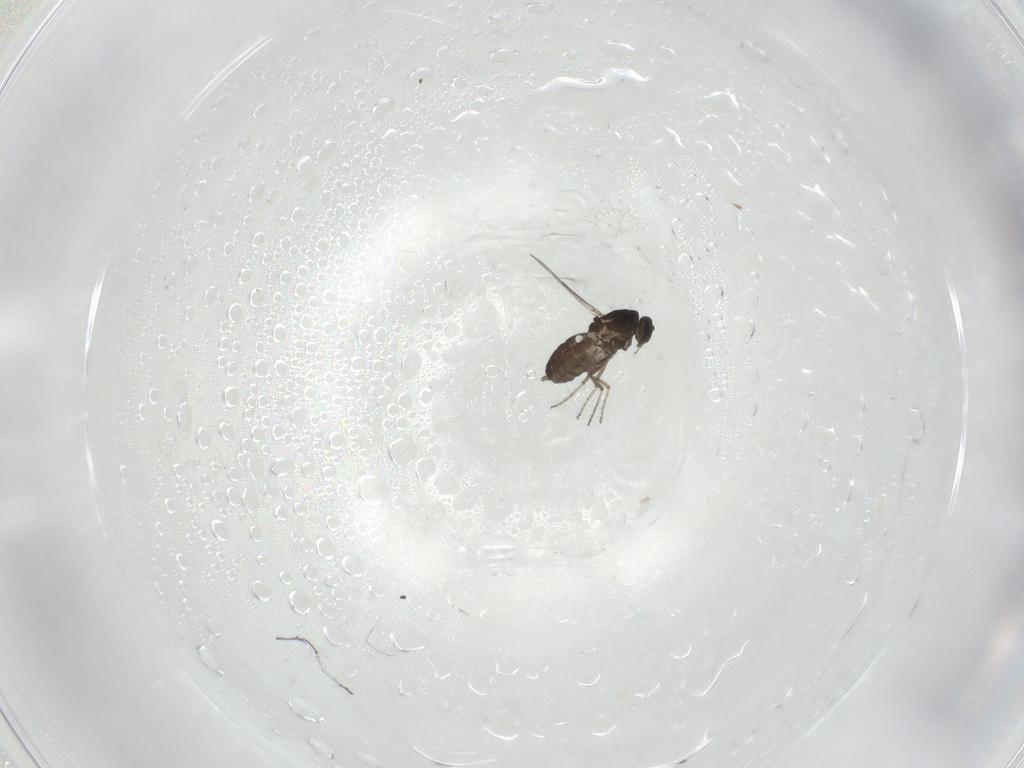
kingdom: Animalia
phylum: Arthropoda
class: Insecta
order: Diptera
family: Ceratopogonidae
